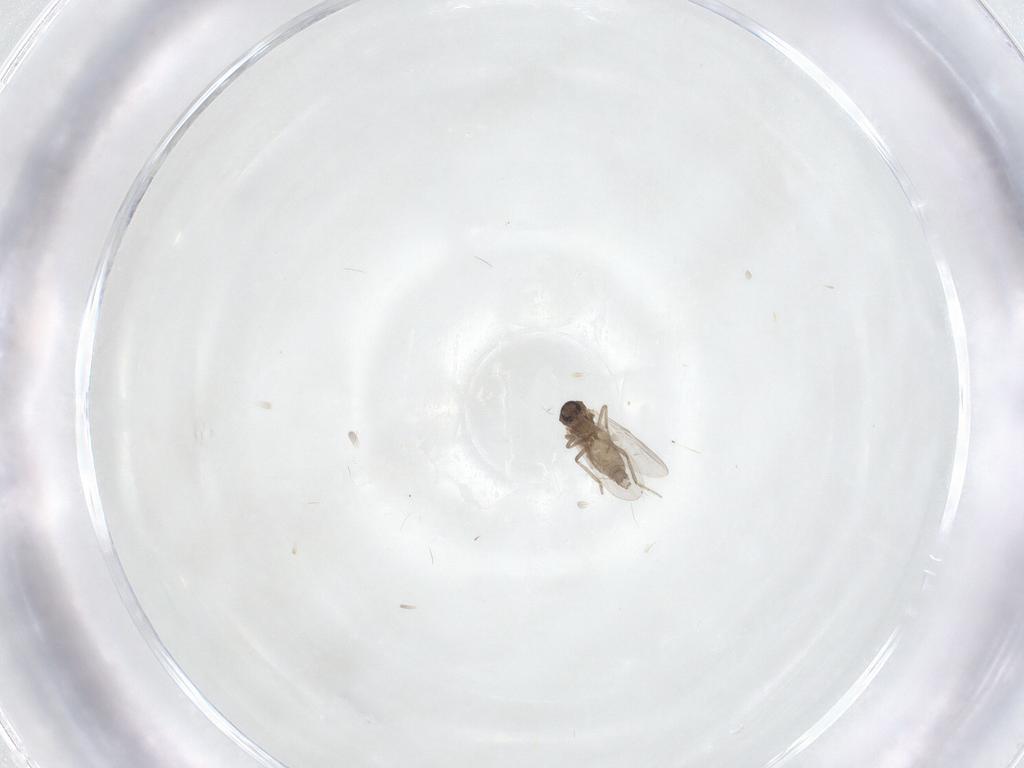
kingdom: Animalia
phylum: Arthropoda
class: Insecta
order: Diptera
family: Ceratopogonidae
